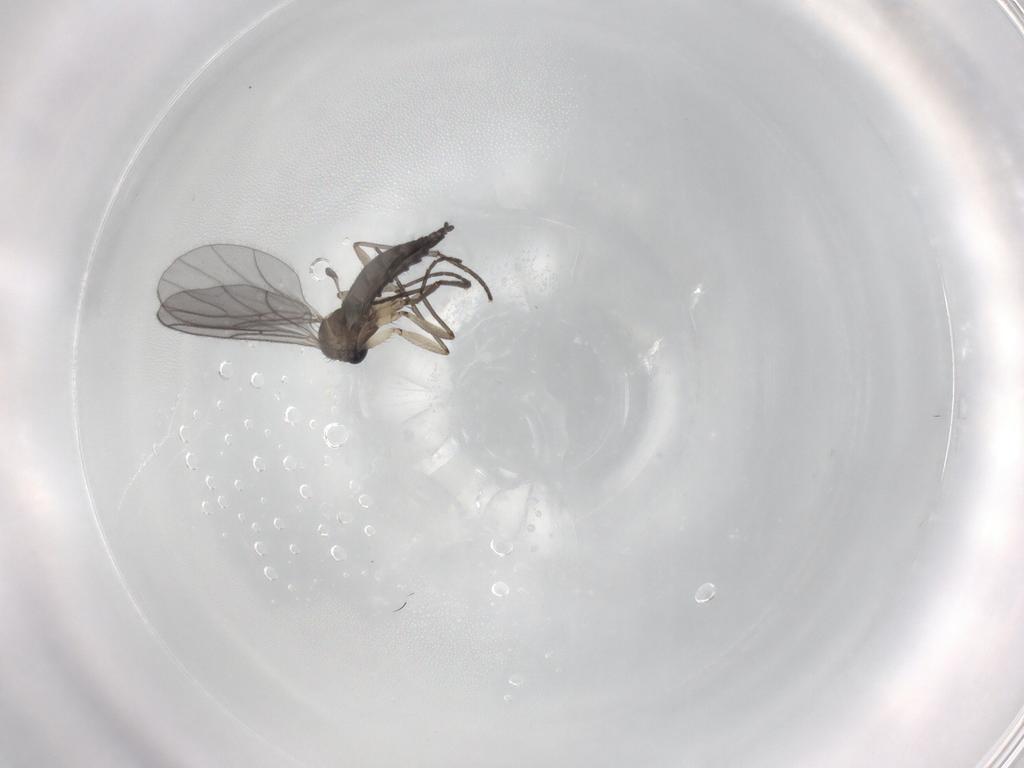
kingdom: Animalia
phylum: Arthropoda
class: Insecta
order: Diptera
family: Sciaridae
